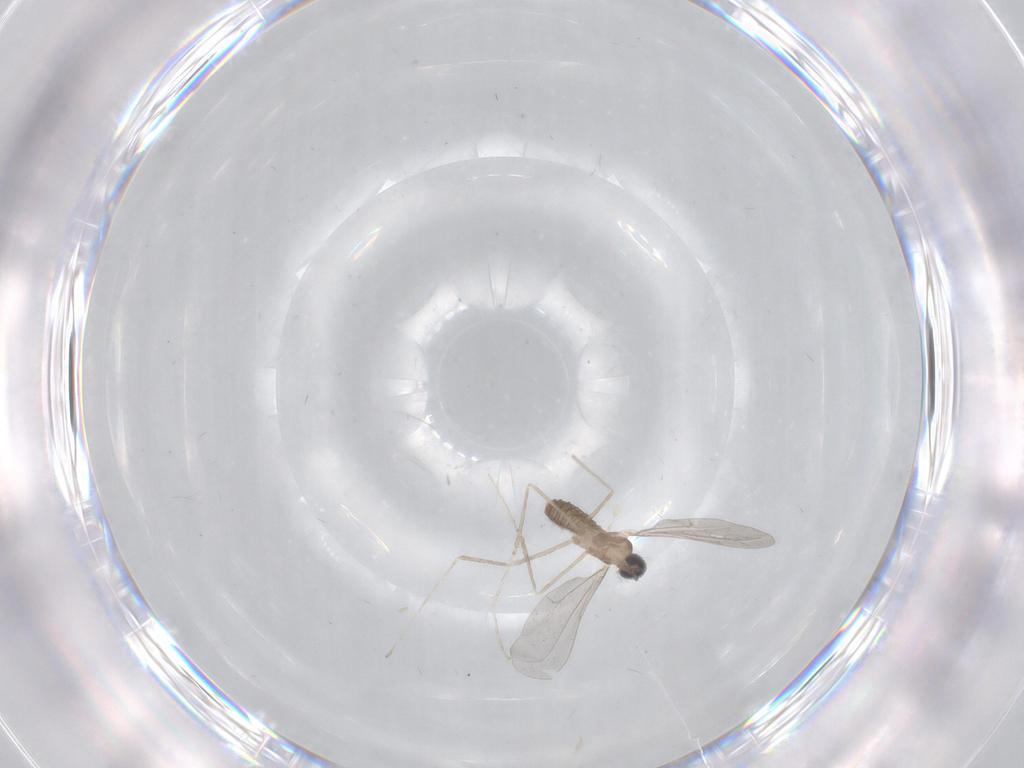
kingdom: Animalia
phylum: Arthropoda
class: Insecta
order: Diptera
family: Cecidomyiidae
